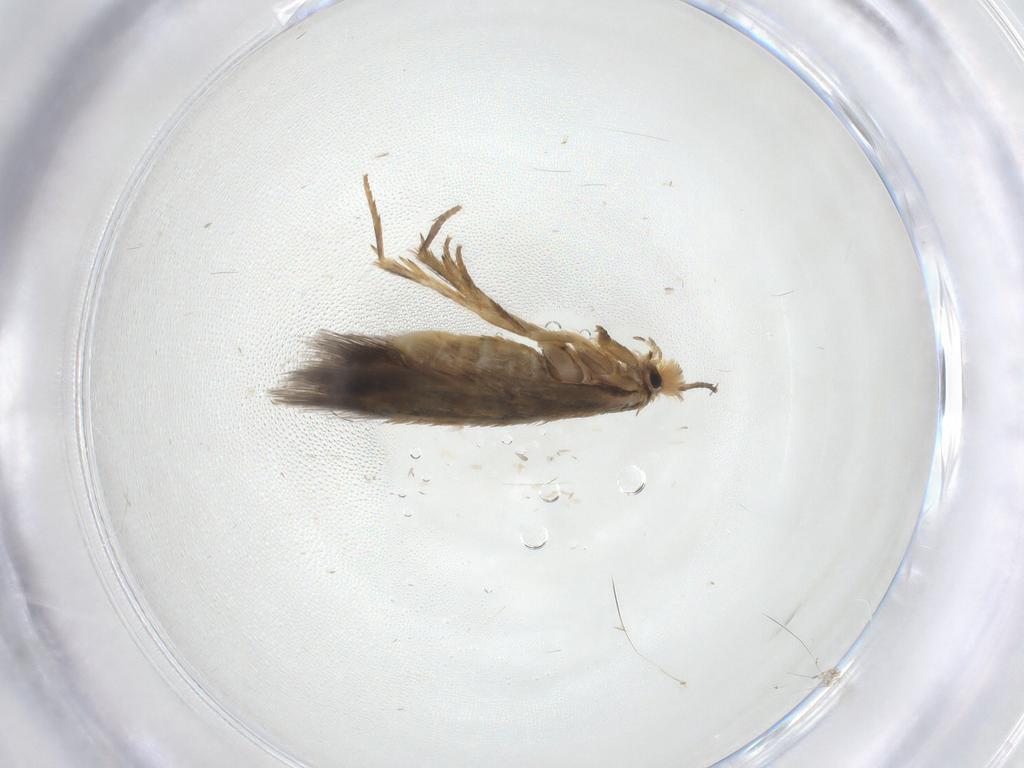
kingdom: Animalia
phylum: Arthropoda
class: Insecta
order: Lepidoptera
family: Nepticulidae
